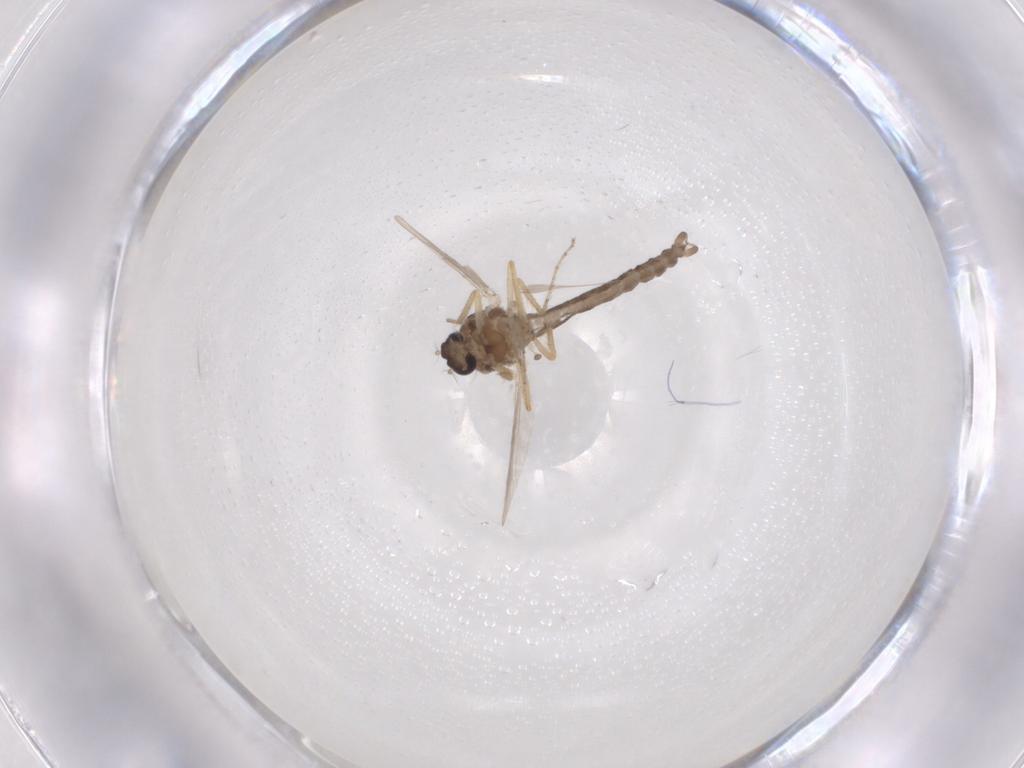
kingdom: Animalia
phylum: Arthropoda
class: Insecta
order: Diptera
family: Ceratopogonidae
